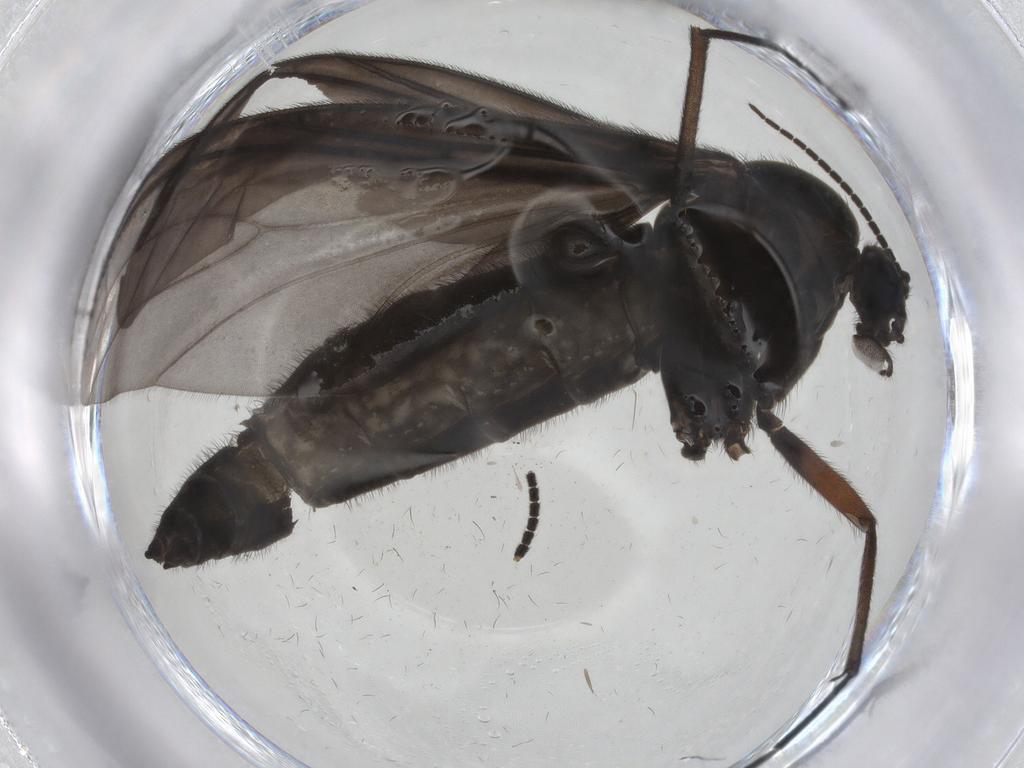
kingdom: Animalia
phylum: Arthropoda
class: Insecta
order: Diptera
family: Sciaridae
